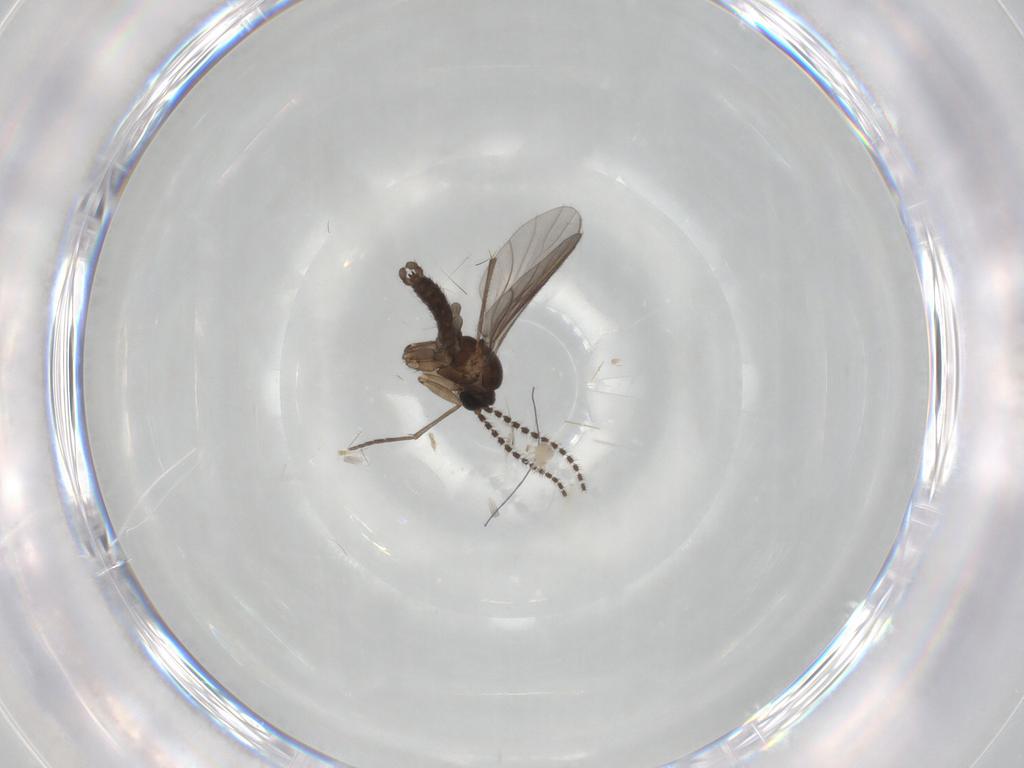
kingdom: Animalia
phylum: Arthropoda
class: Insecta
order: Diptera
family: Sciaridae
